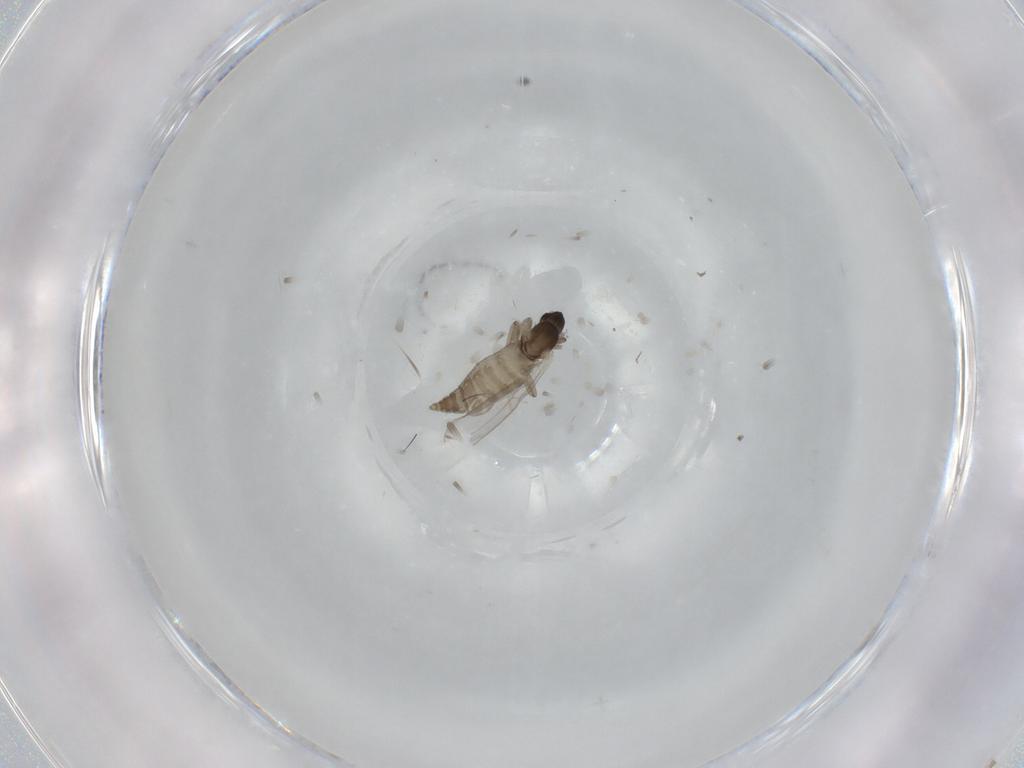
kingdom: Animalia
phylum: Arthropoda
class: Insecta
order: Diptera
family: Cecidomyiidae
